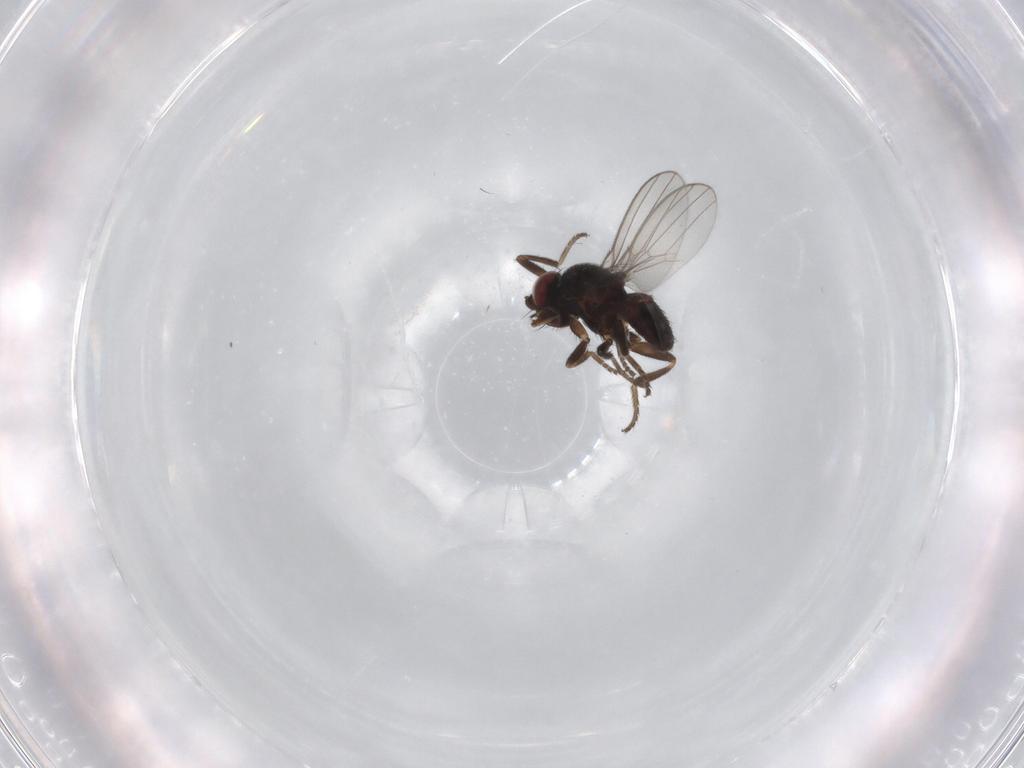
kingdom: Animalia
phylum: Arthropoda
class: Insecta
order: Diptera
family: Milichiidae
